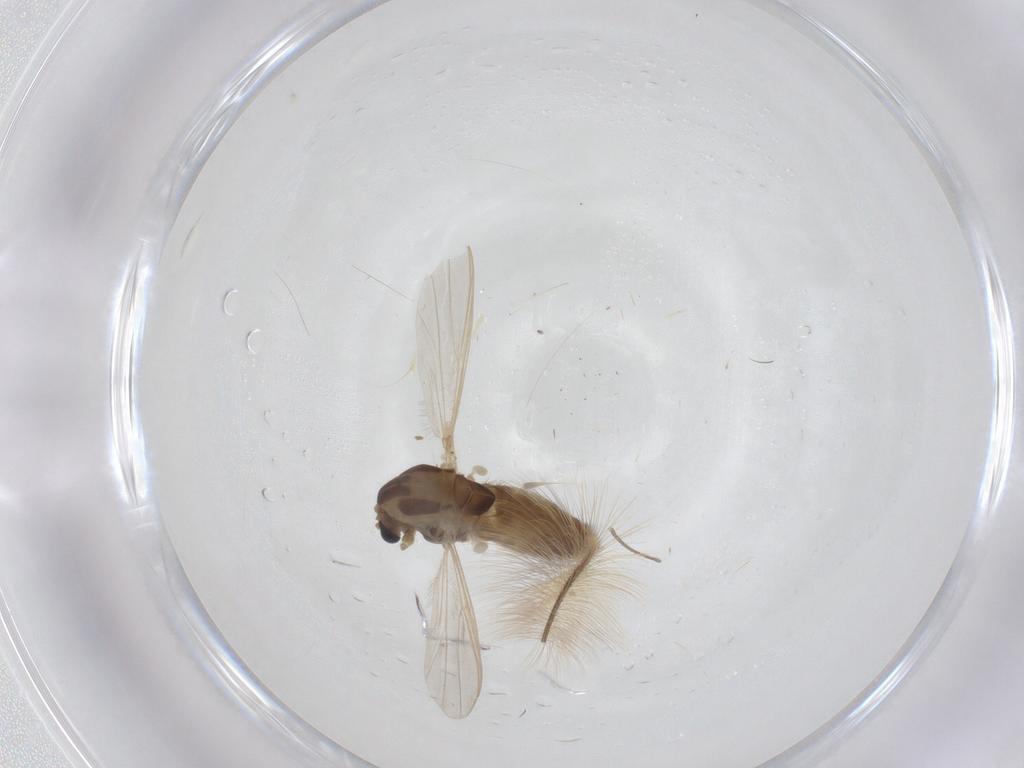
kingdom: Animalia
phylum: Arthropoda
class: Insecta
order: Diptera
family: Chironomidae
